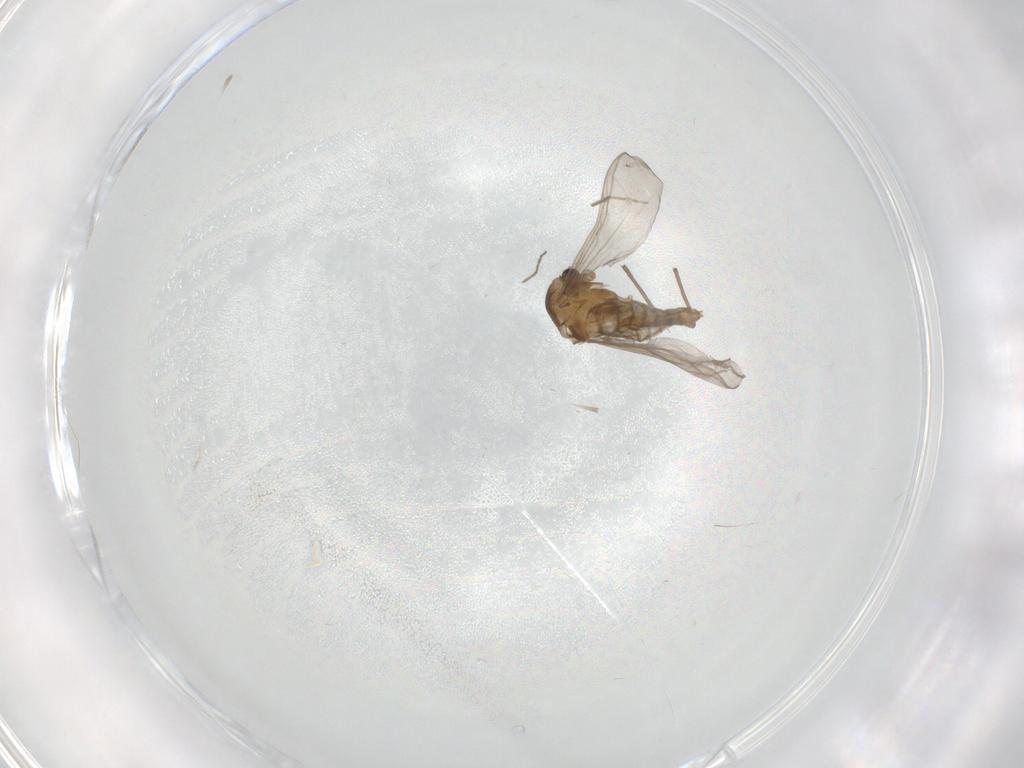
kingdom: Animalia
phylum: Arthropoda
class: Insecta
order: Diptera
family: Chironomidae
